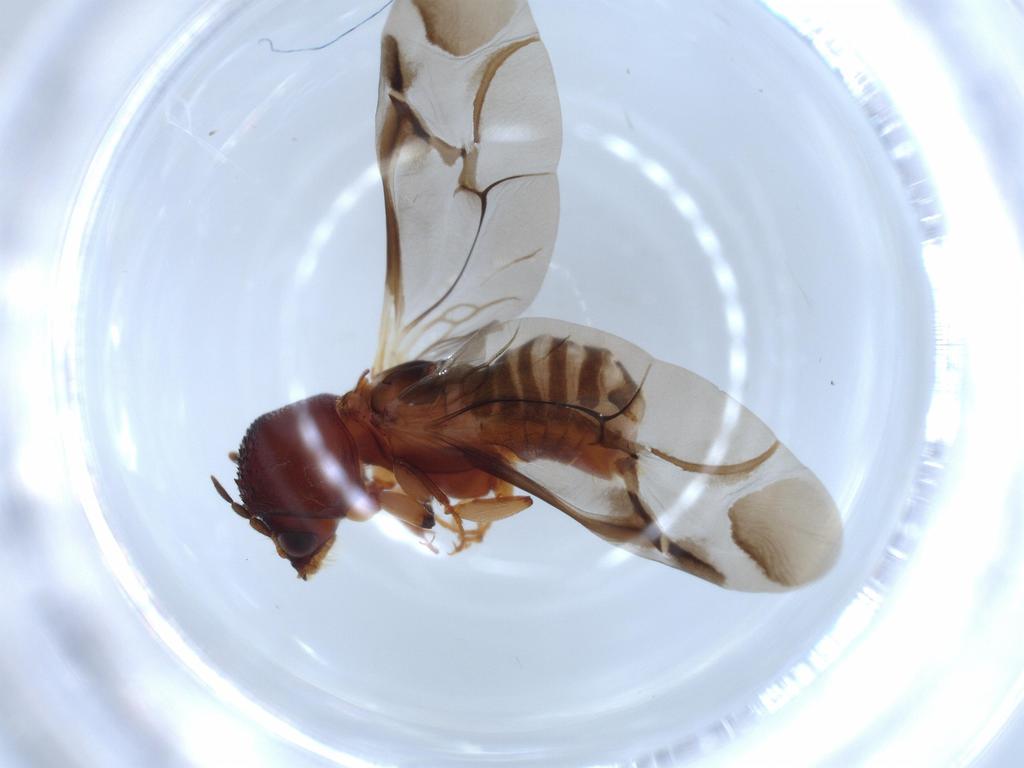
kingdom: Animalia
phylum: Arthropoda
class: Insecta
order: Coleoptera
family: Bostrichidae
